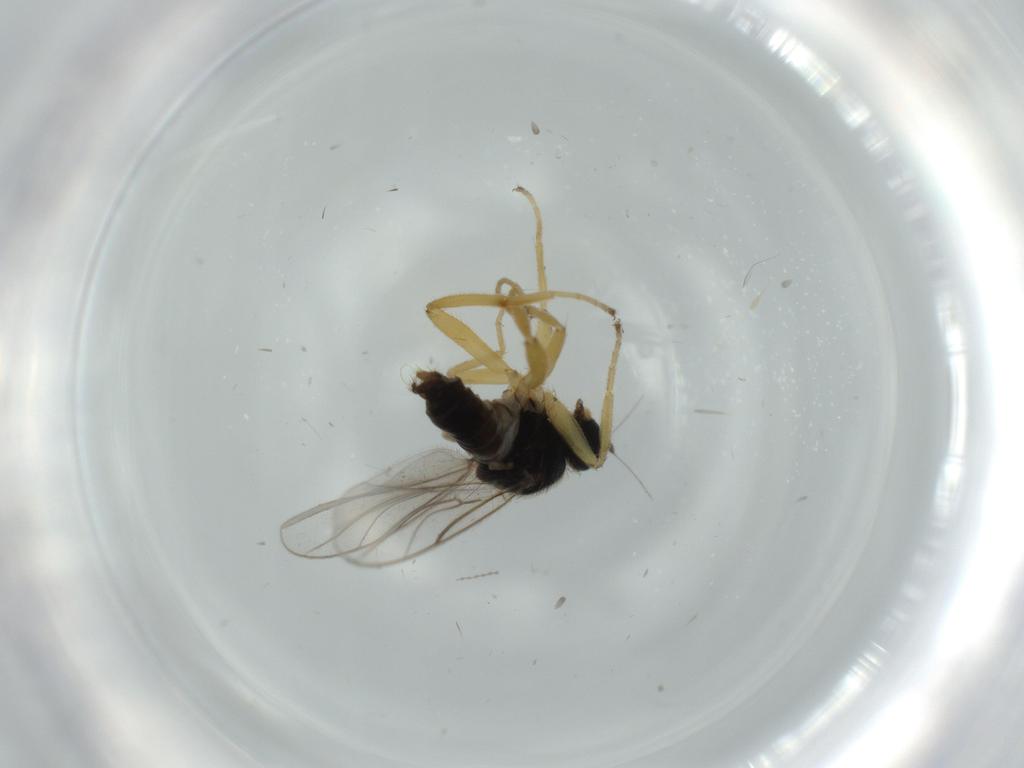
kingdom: Animalia
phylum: Arthropoda
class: Insecta
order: Diptera
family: Hybotidae
